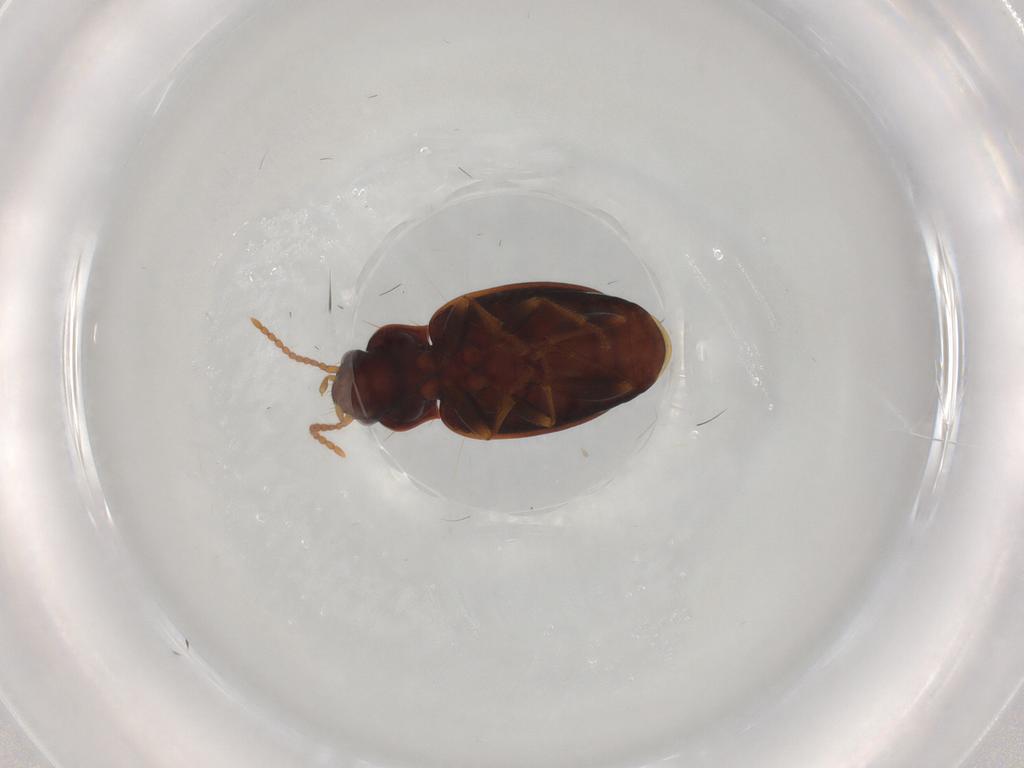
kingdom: Animalia
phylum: Arthropoda
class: Insecta
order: Coleoptera
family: Carabidae
